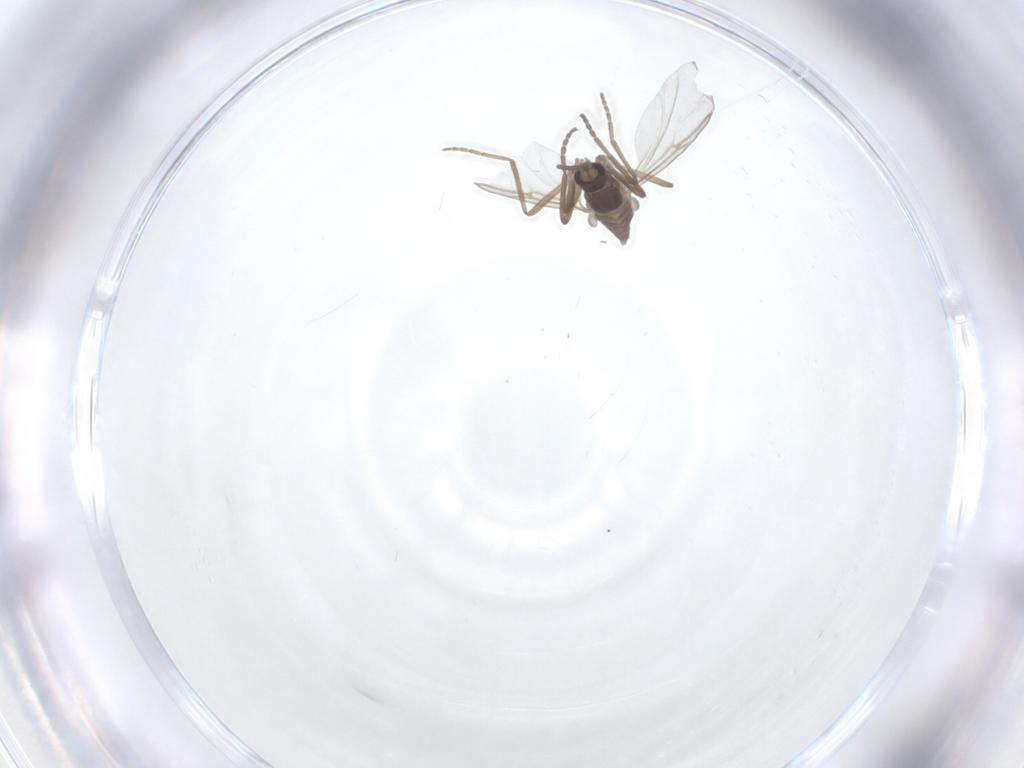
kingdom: Animalia
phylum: Arthropoda
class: Insecta
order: Diptera
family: Cecidomyiidae
